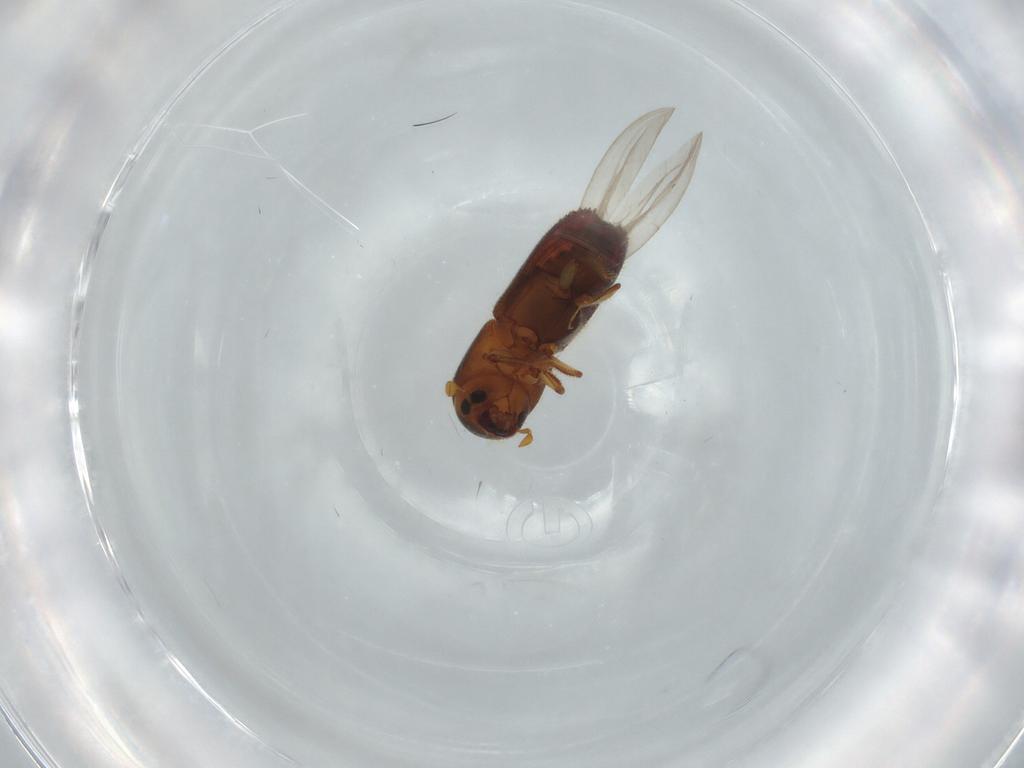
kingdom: Animalia
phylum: Arthropoda
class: Insecta
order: Coleoptera
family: Curculionidae
